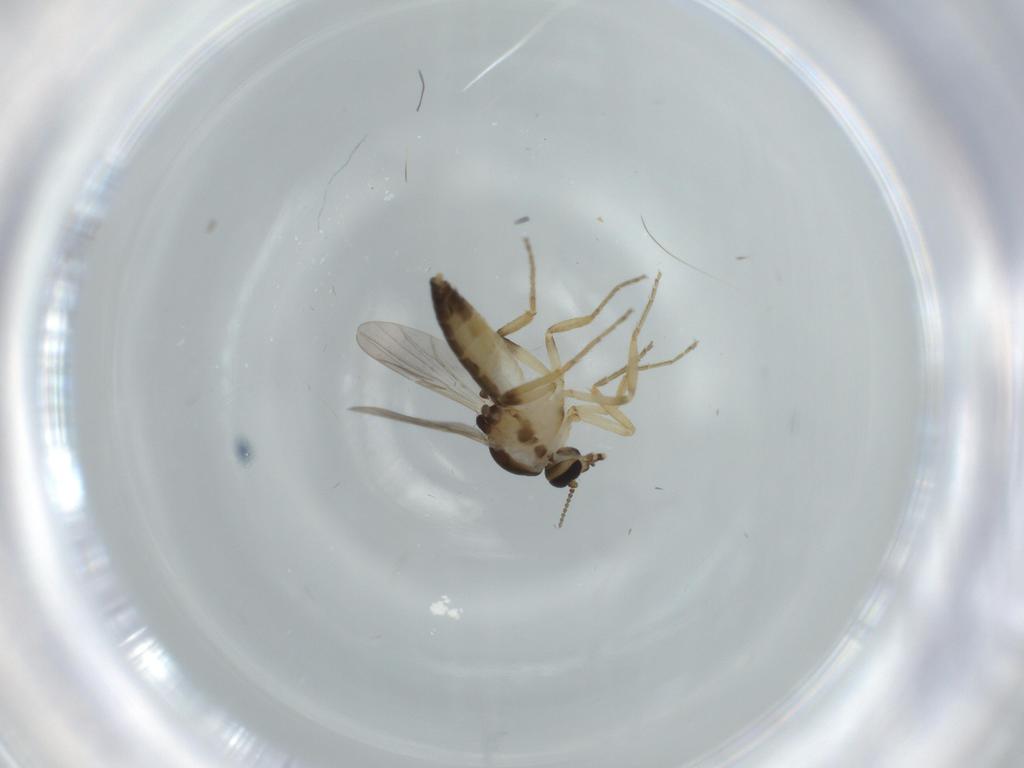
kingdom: Animalia
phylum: Arthropoda
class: Insecta
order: Diptera
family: Ceratopogonidae
